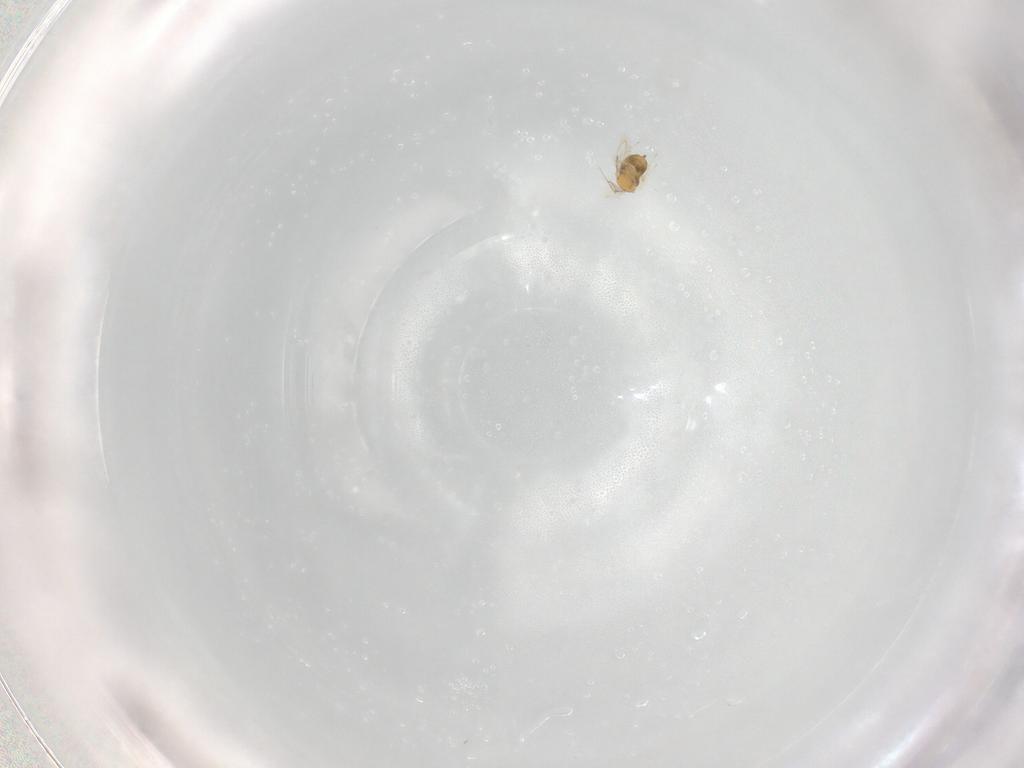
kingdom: Animalia
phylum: Arthropoda
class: Insecta
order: Hymenoptera
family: Aphelinidae
